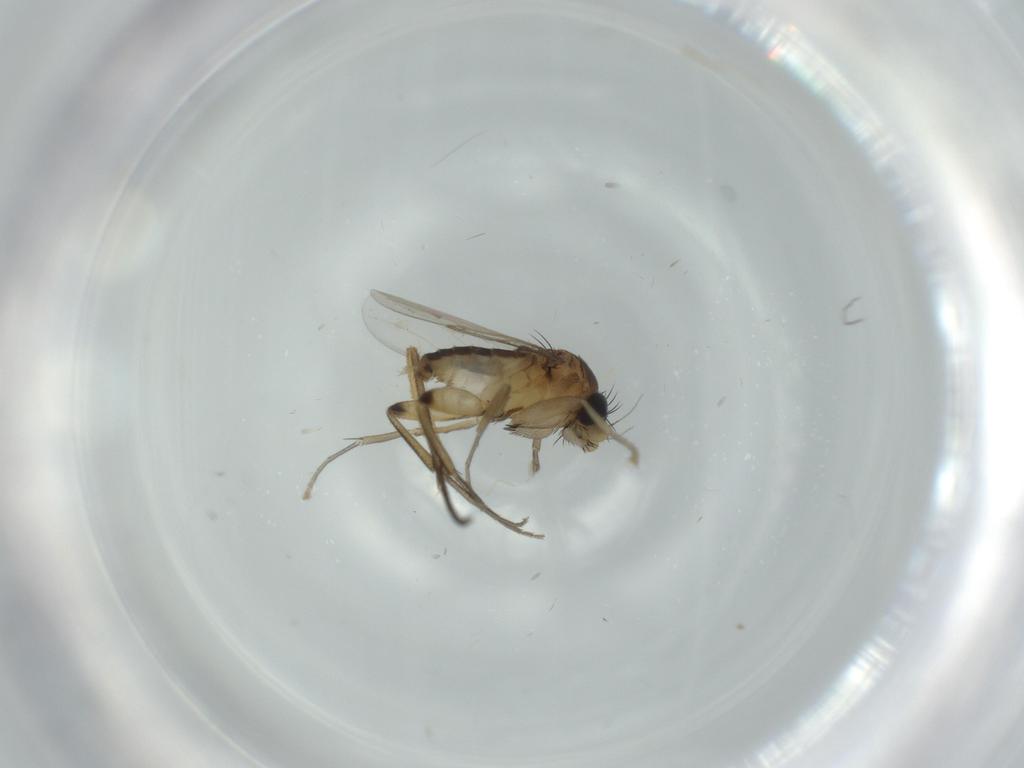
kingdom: Animalia
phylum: Arthropoda
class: Insecta
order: Diptera
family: Phoridae
